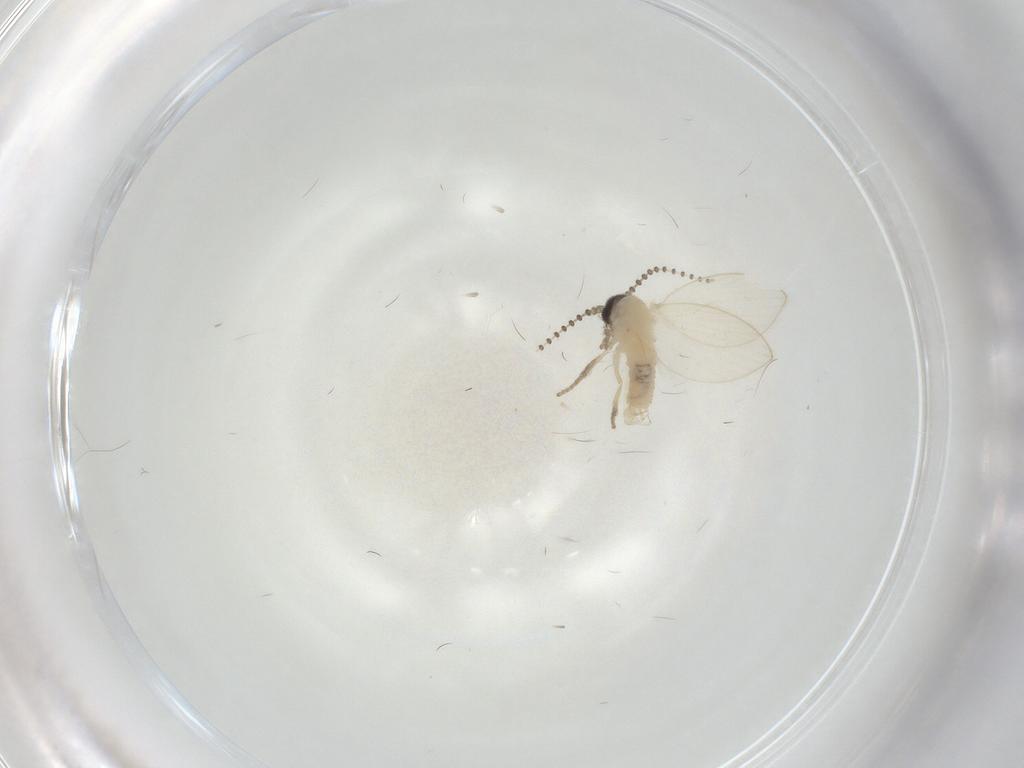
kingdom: Animalia
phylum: Arthropoda
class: Insecta
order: Diptera
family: Psychodidae
